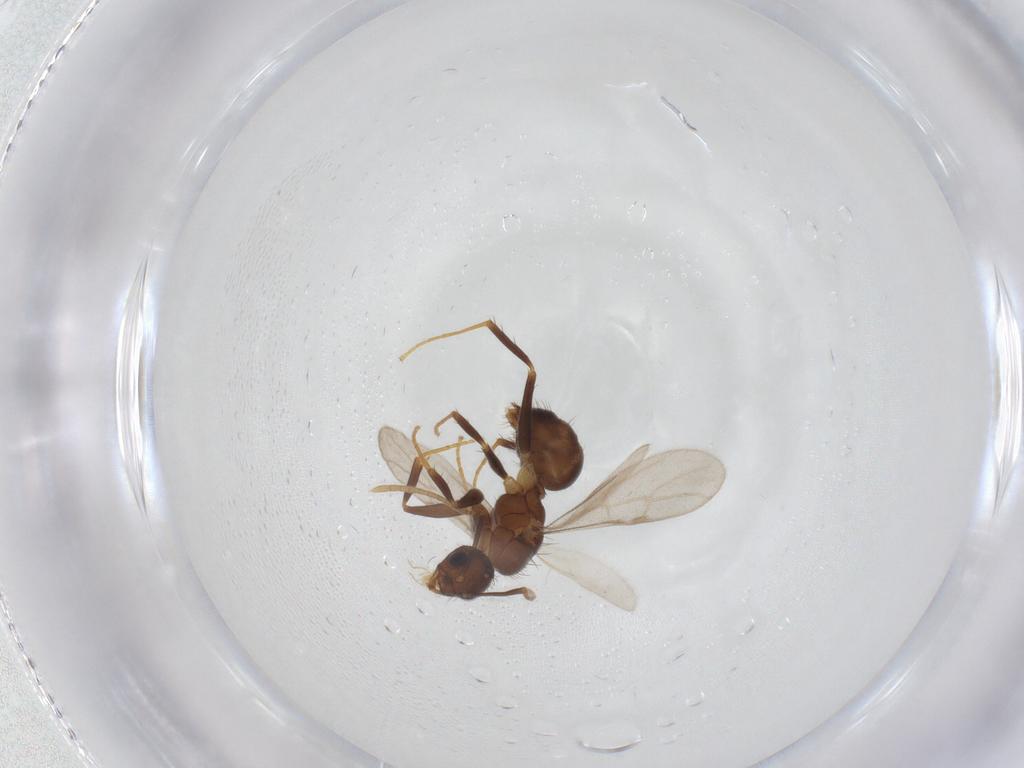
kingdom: Animalia
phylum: Arthropoda
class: Insecta
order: Hymenoptera
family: Formicidae
